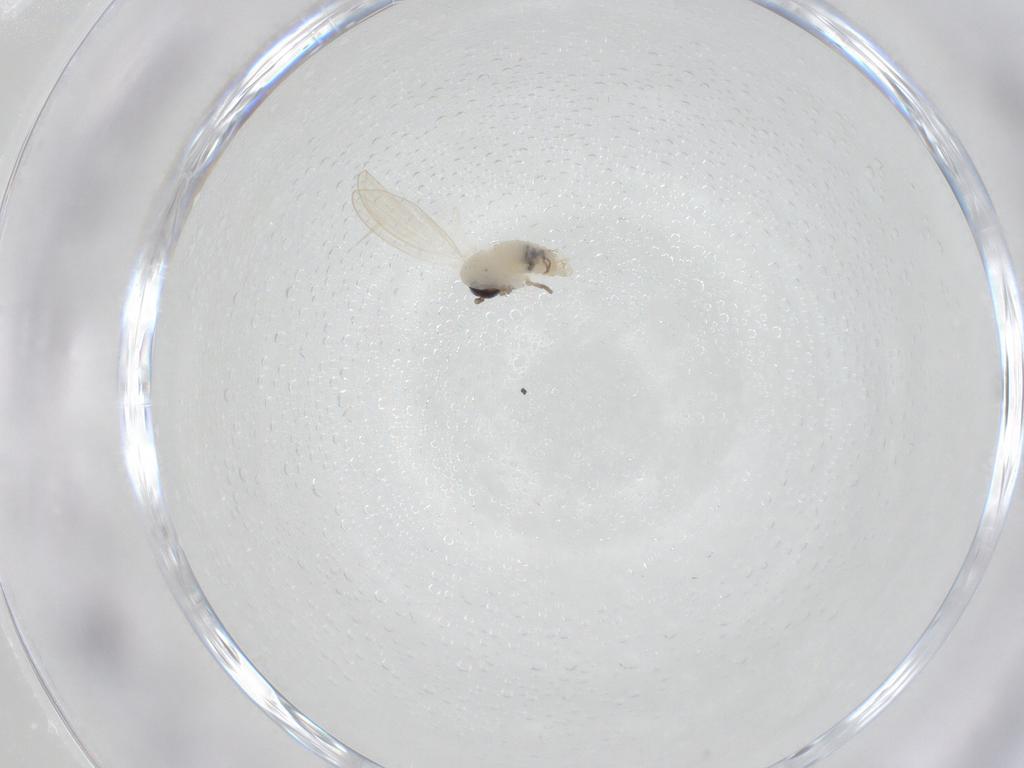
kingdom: Animalia
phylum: Arthropoda
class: Insecta
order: Diptera
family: Psychodidae
